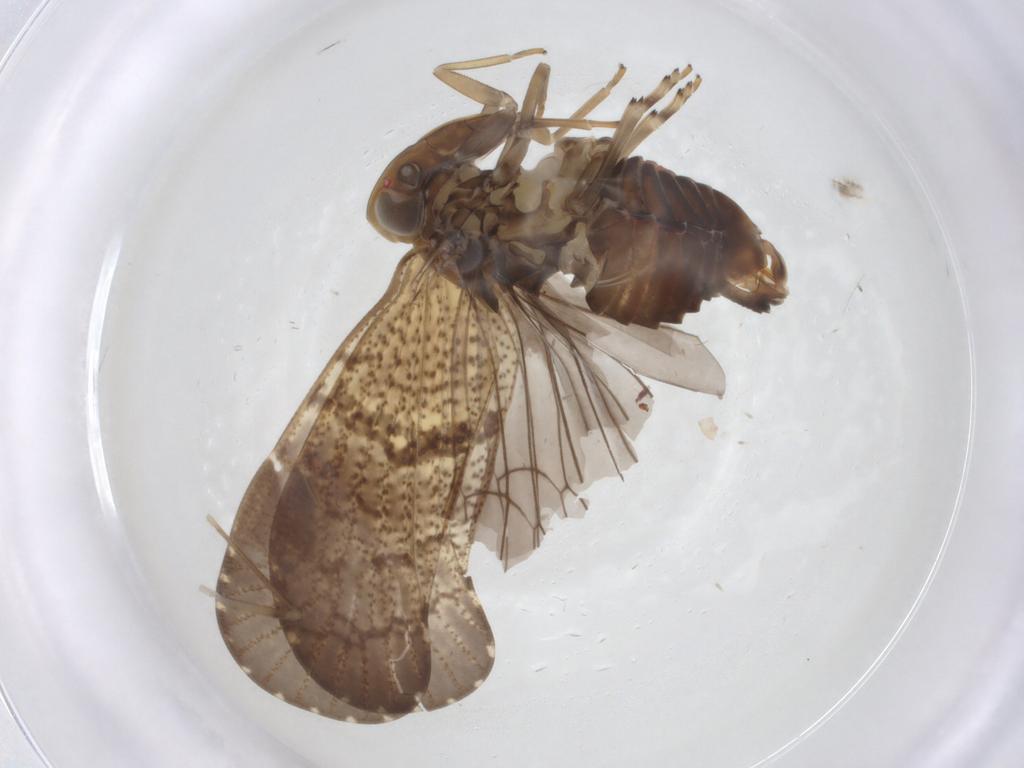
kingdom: Animalia
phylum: Arthropoda
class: Insecta
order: Hemiptera
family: Cixiidae
